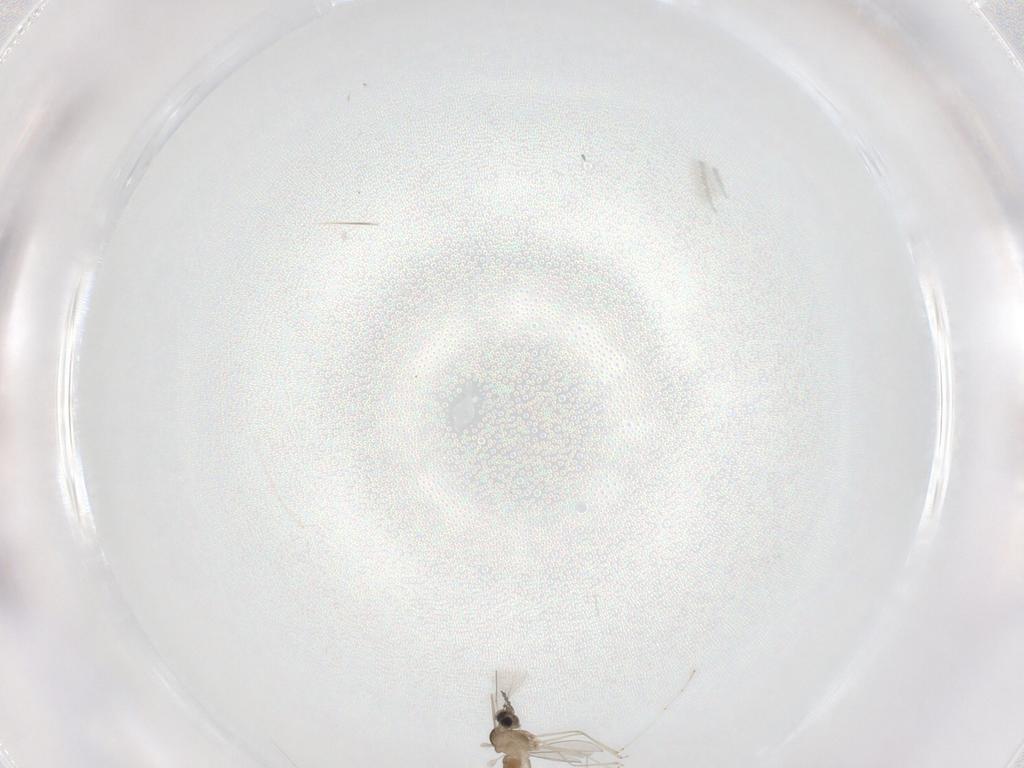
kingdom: Animalia
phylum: Arthropoda
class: Insecta
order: Diptera
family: Cecidomyiidae
